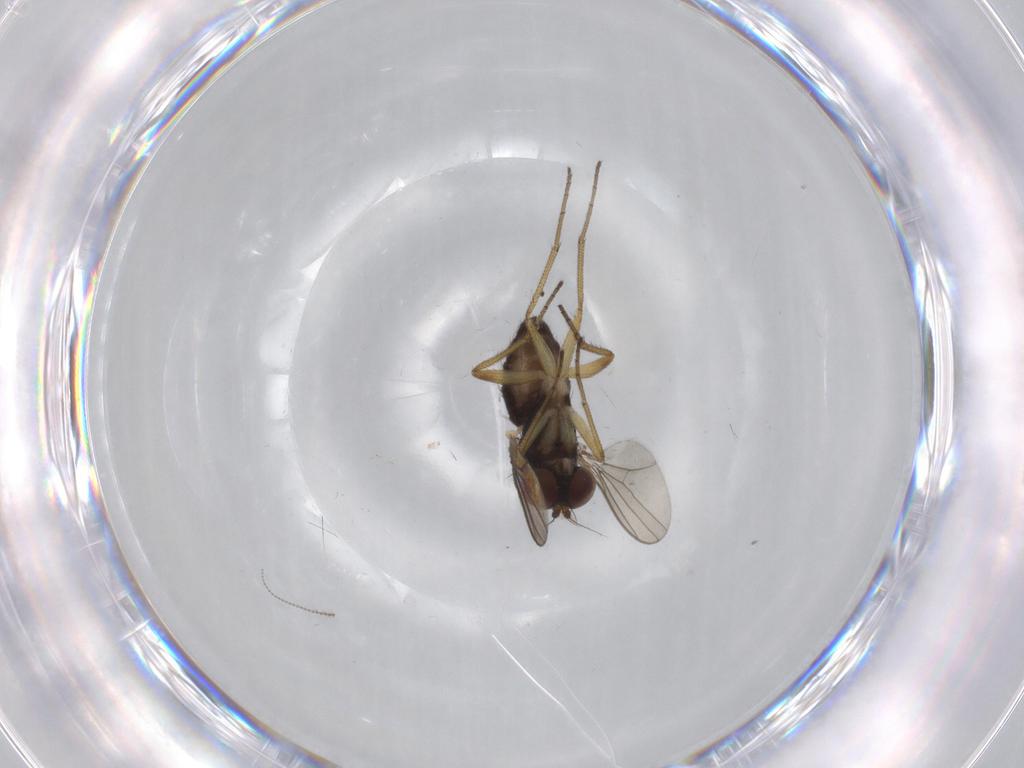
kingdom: Animalia
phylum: Arthropoda
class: Insecta
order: Diptera
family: Dolichopodidae
